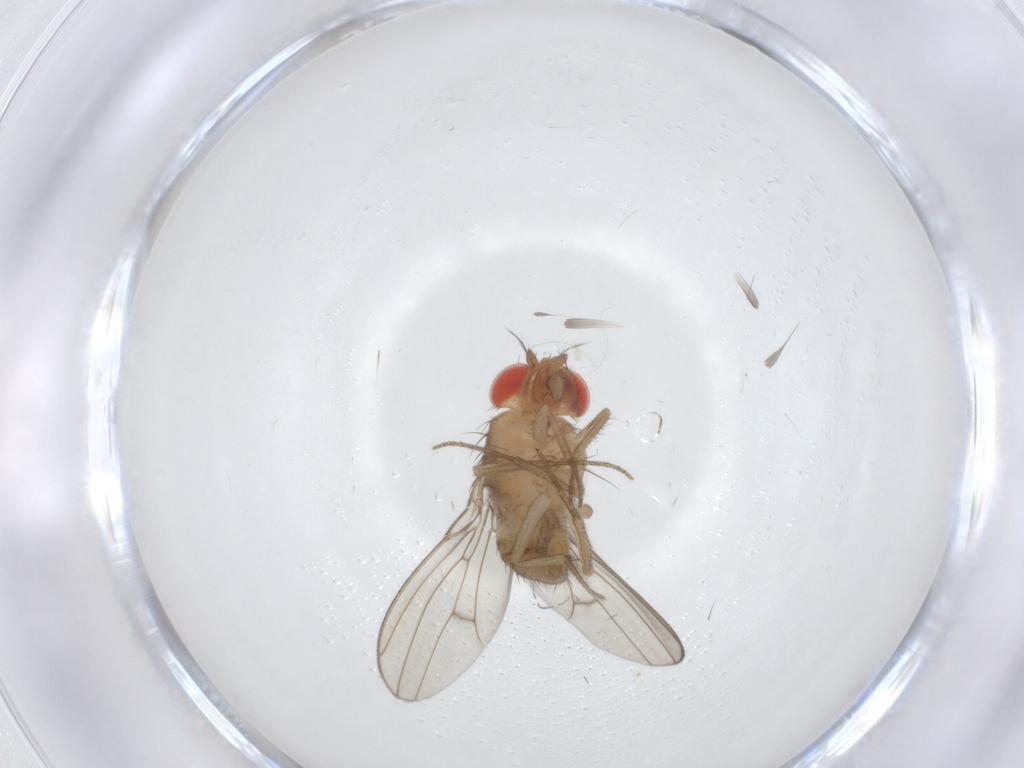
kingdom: Animalia
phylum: Arthropoda
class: Insecta
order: Diptera
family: Drosophilidae
